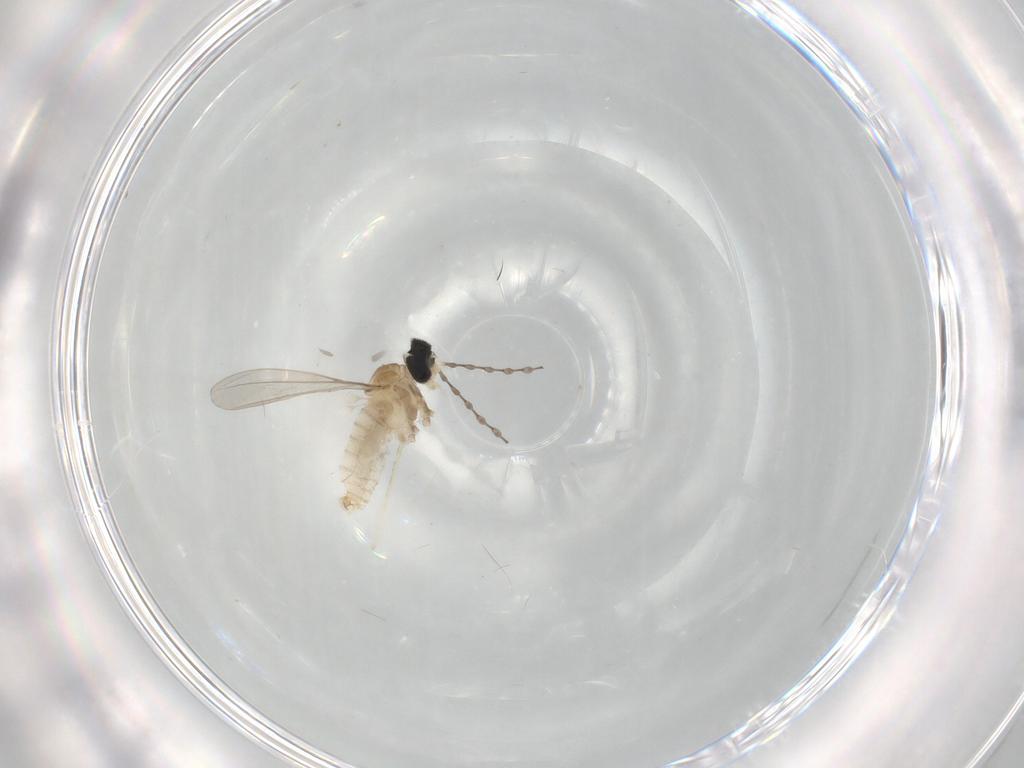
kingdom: Animalia
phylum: Arthropoda
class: Insecta
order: Diptera
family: Cecidomyiidae
